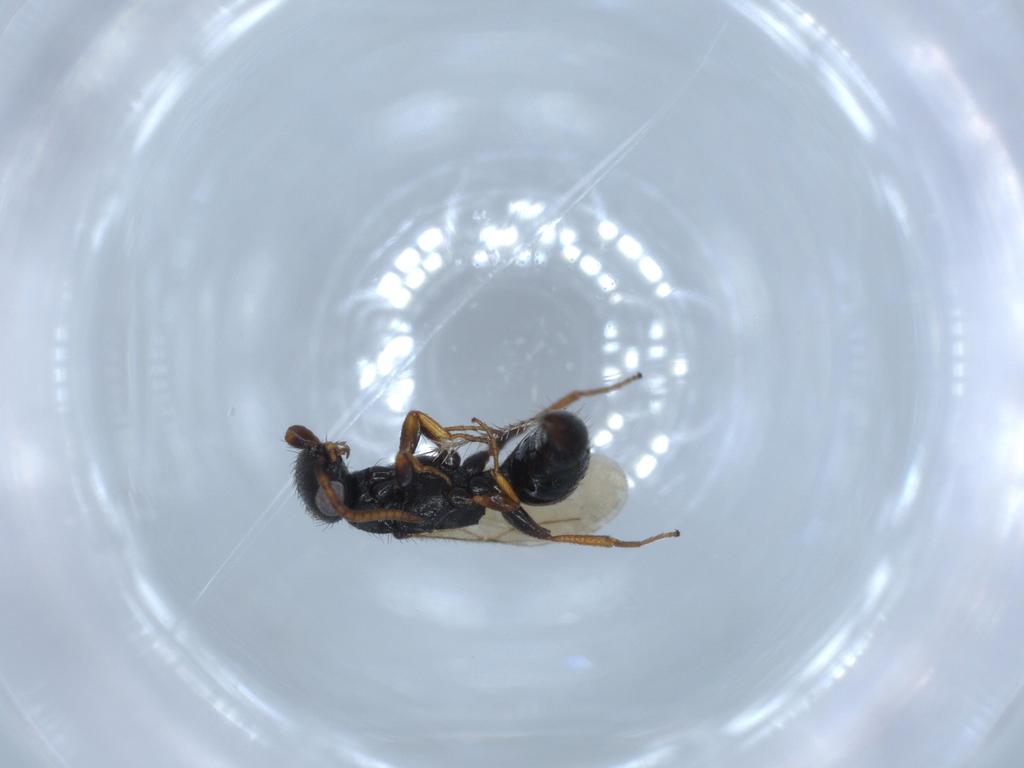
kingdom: Animalia
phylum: Arthropoda
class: Insecta
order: Hymenoptera
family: Bethylidae
